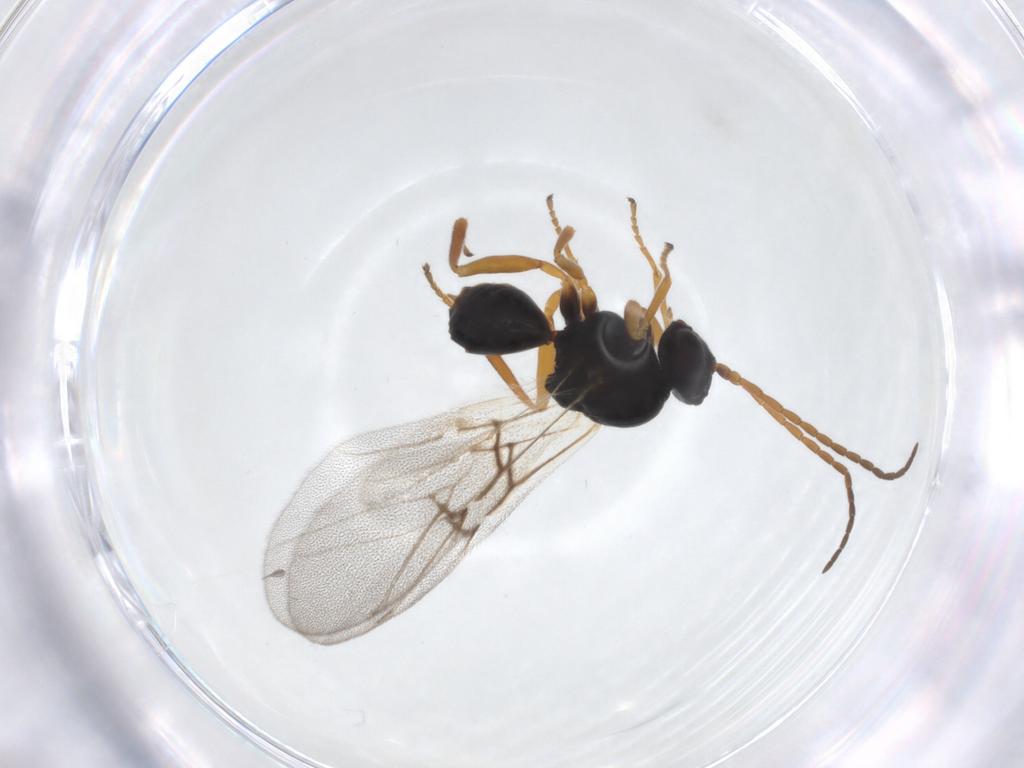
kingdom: Animalia
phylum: Arthropoda
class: Insecta
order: Hymenoptera
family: Cynipidae
